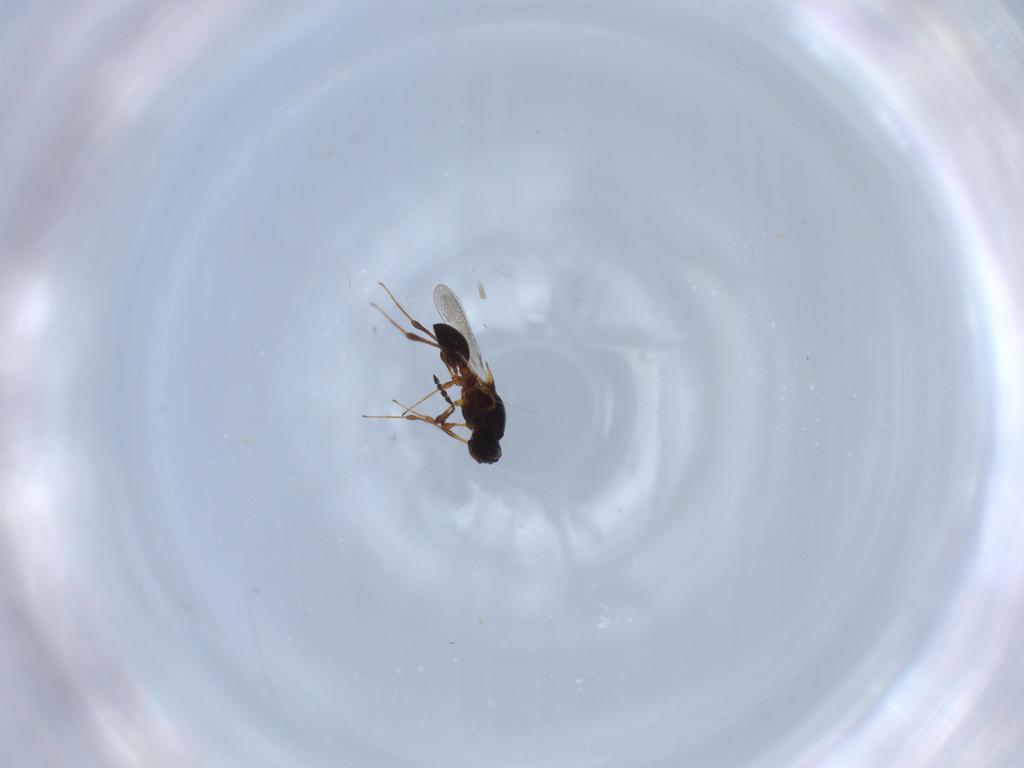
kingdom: Animalia
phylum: Arthropoda
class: Insecta
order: Hymenoptera
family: Platygastridae
